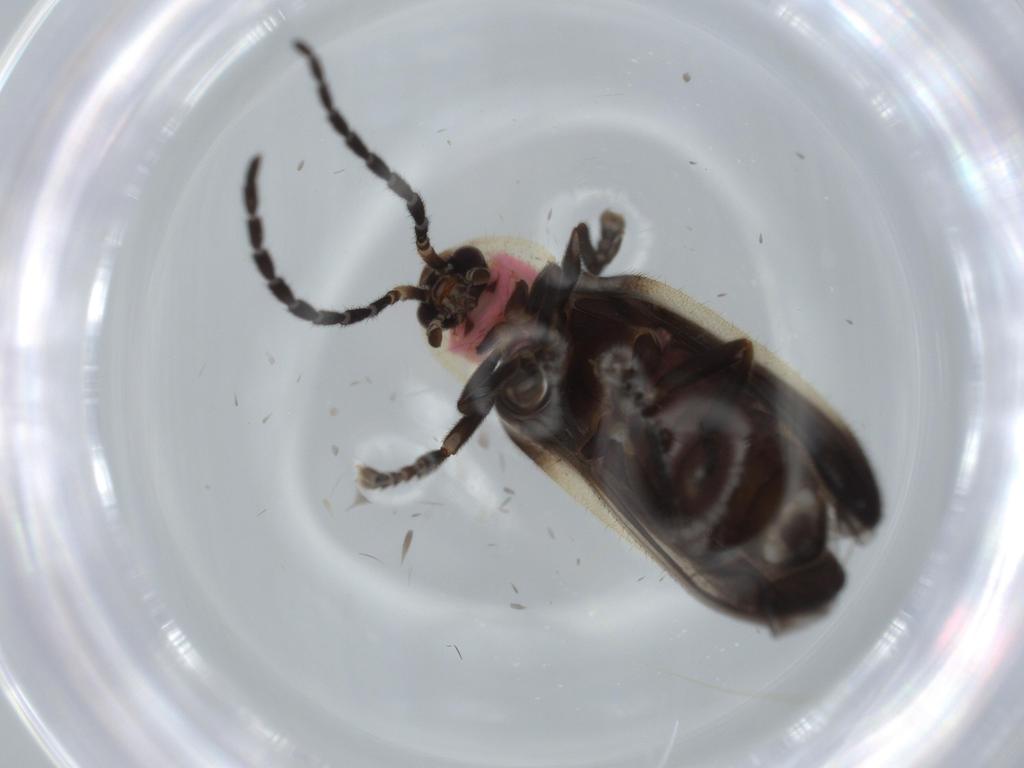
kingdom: Animalia
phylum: Arthropoda
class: Insecta
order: Coleoptera
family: Lampyridae
